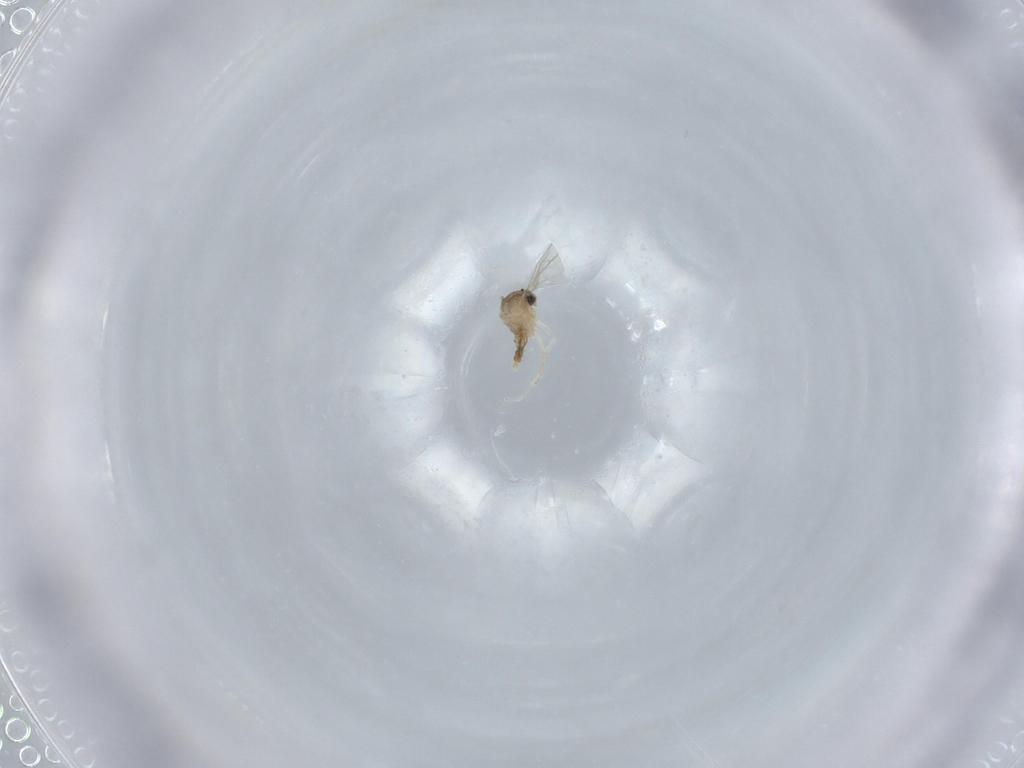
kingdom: Animalia
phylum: Arthropoda
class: Insecta
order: Diptera
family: Cecidomyiidae
